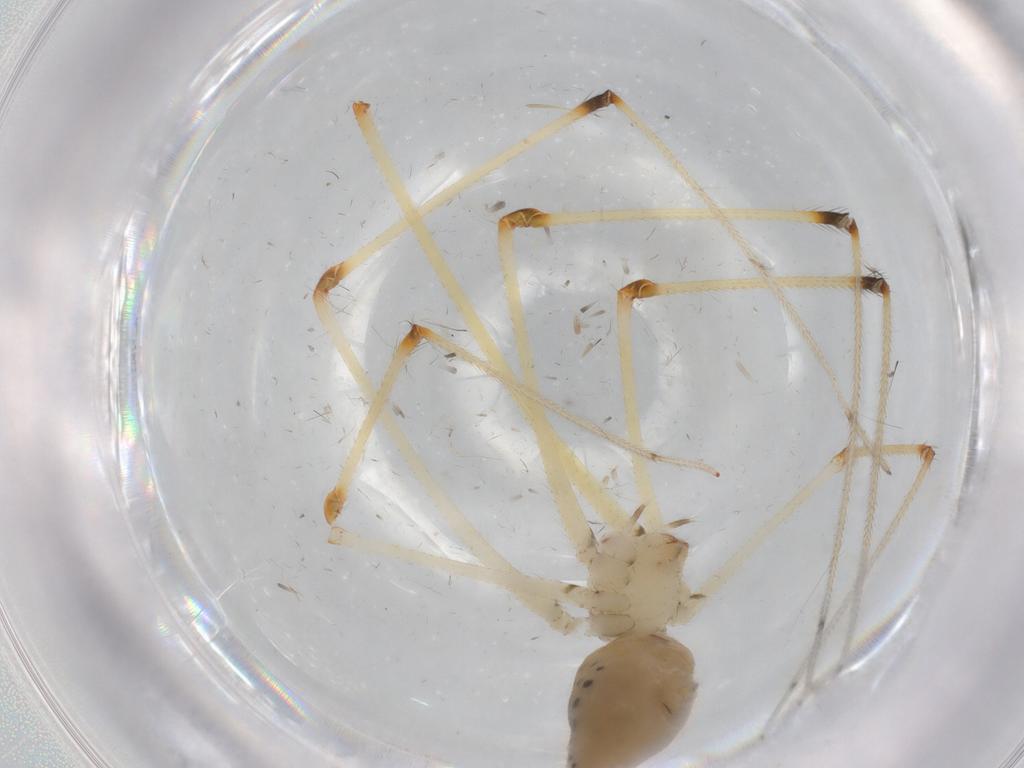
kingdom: Animalia
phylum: Arthropoda
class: Arachnida
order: Araneae
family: Pholcidae
